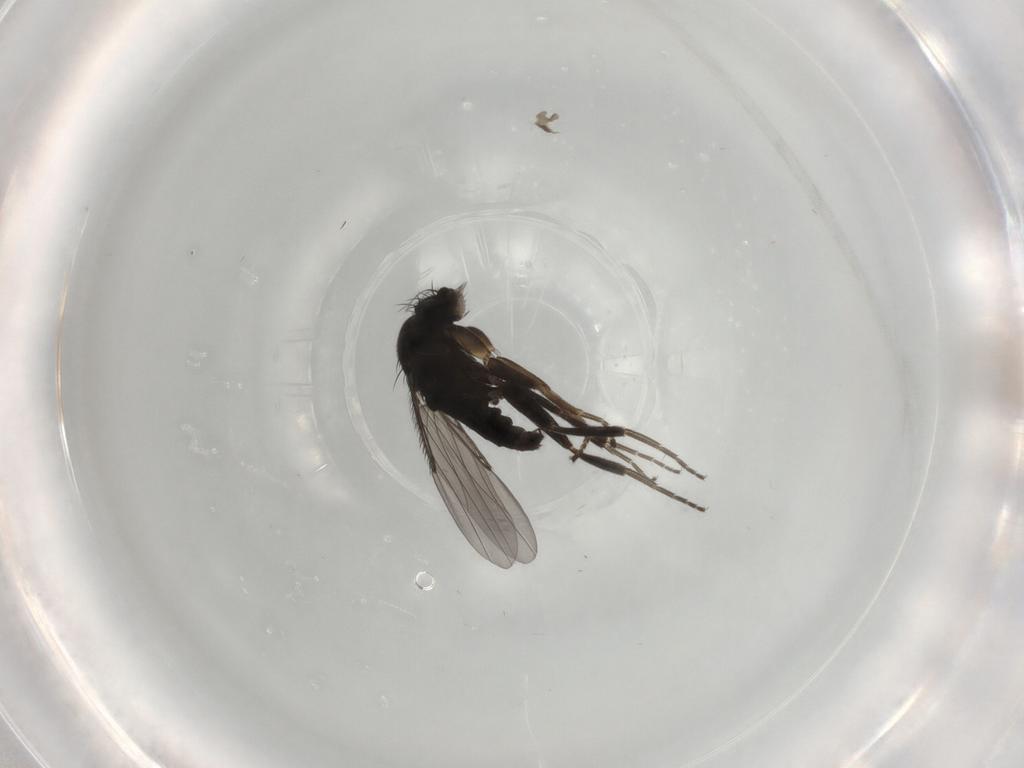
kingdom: Animalia
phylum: Arthropoda
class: Insecta
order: Diptera
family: Phoridae
